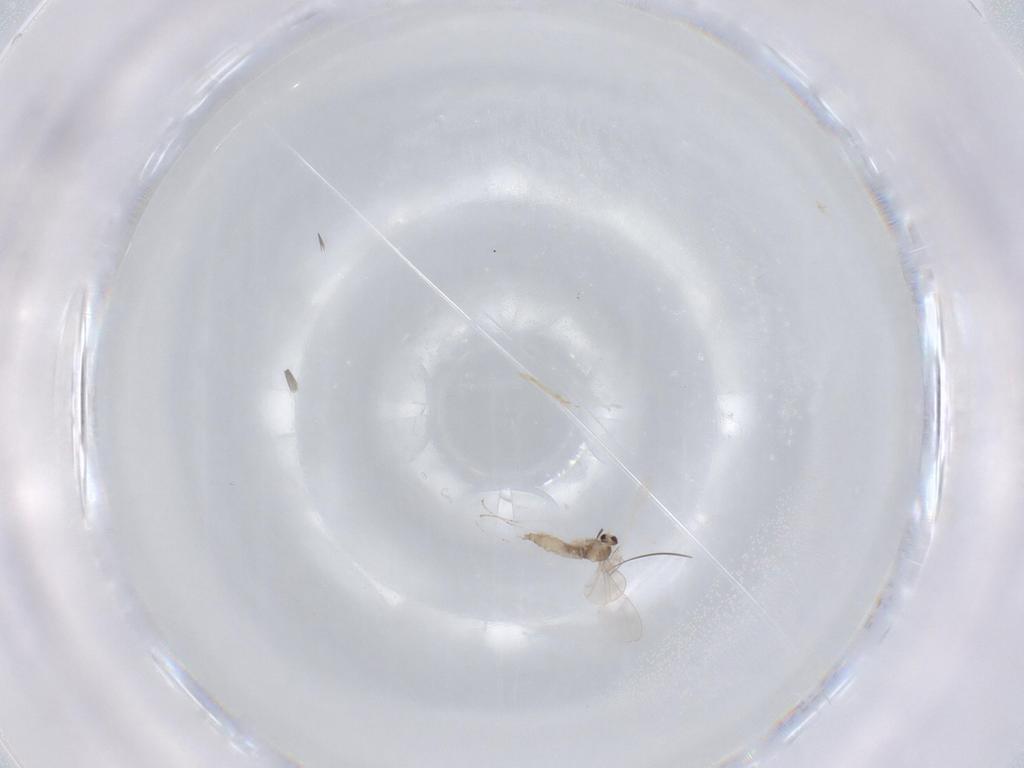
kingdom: Animalia
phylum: Arthropoda
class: Insecta
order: Diptera
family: Cecidomyiidae
